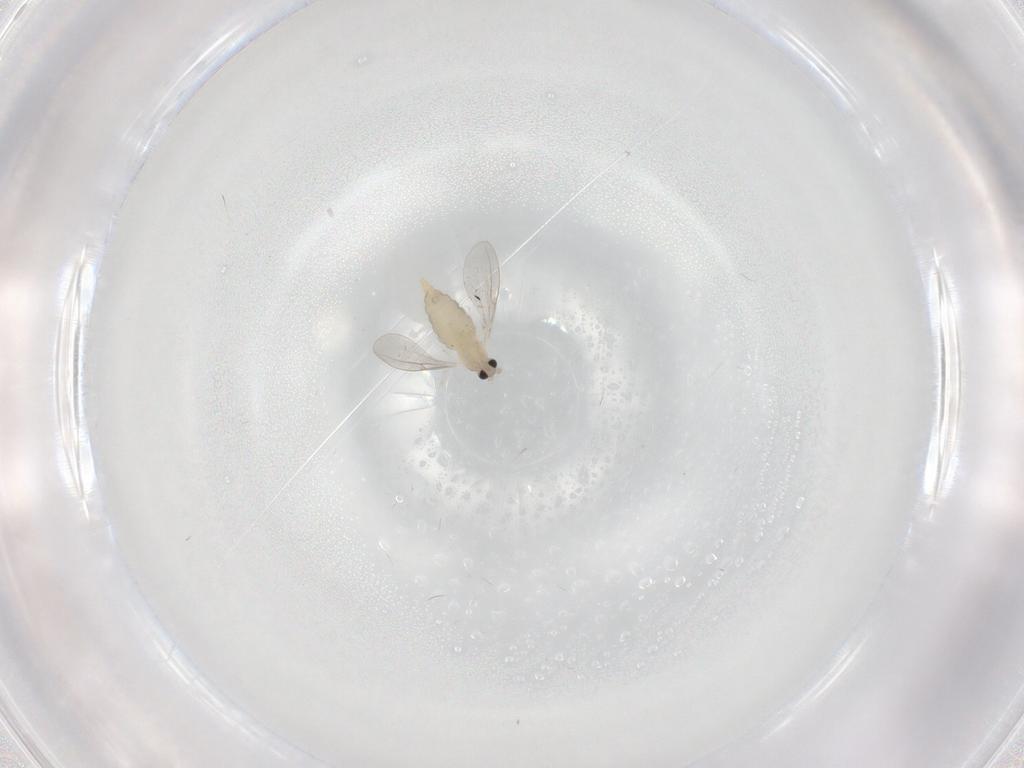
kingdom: Animalia
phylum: Arthropoda
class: Insecta
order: Diptera
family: Cecidomyiidae
